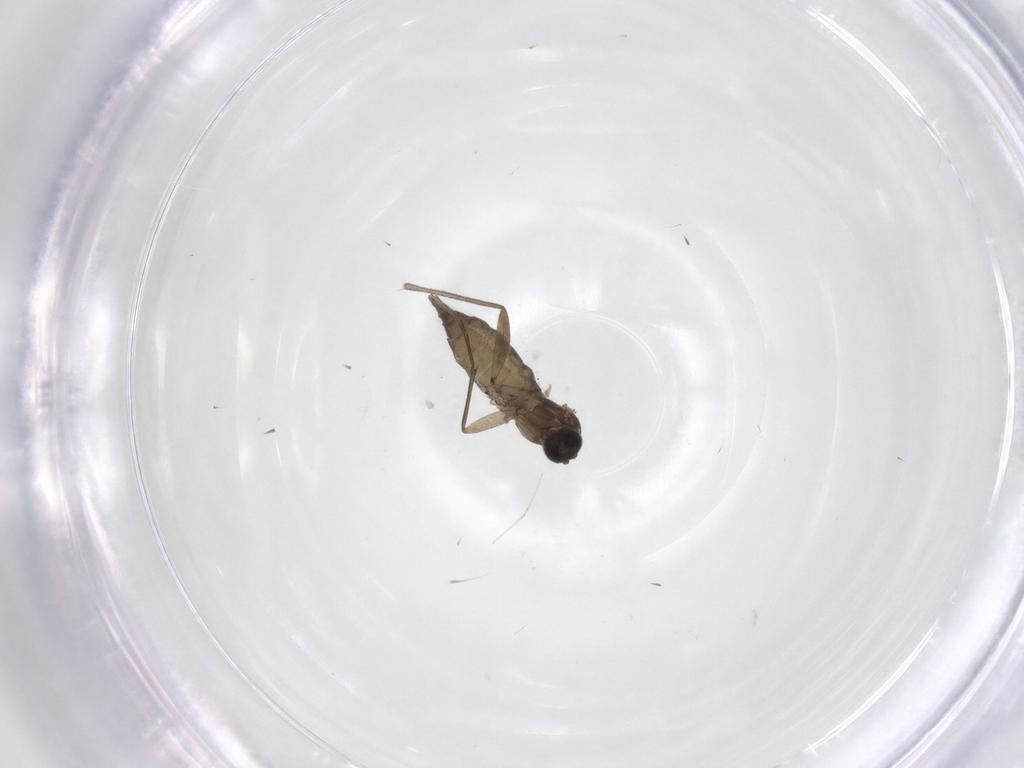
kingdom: Animalia
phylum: Arthropoda
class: Insecta
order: Diptera
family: Sciaridae
